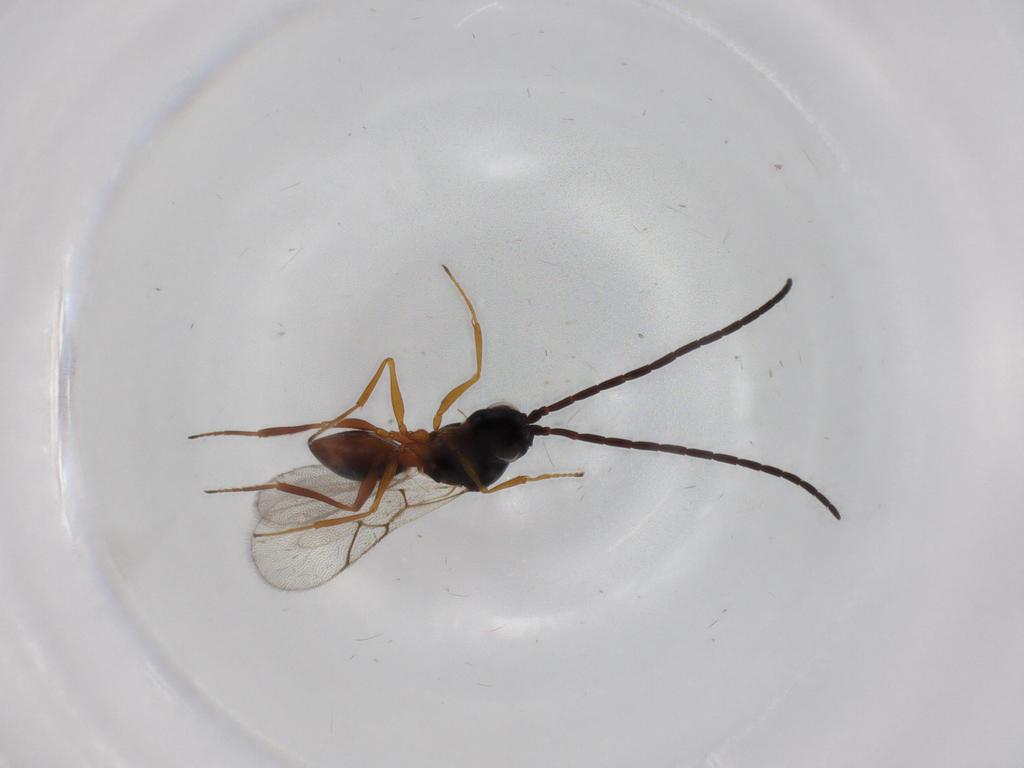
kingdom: Animalia
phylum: Arthropoda
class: Insecta
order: Hymenoptera
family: Figitidae
